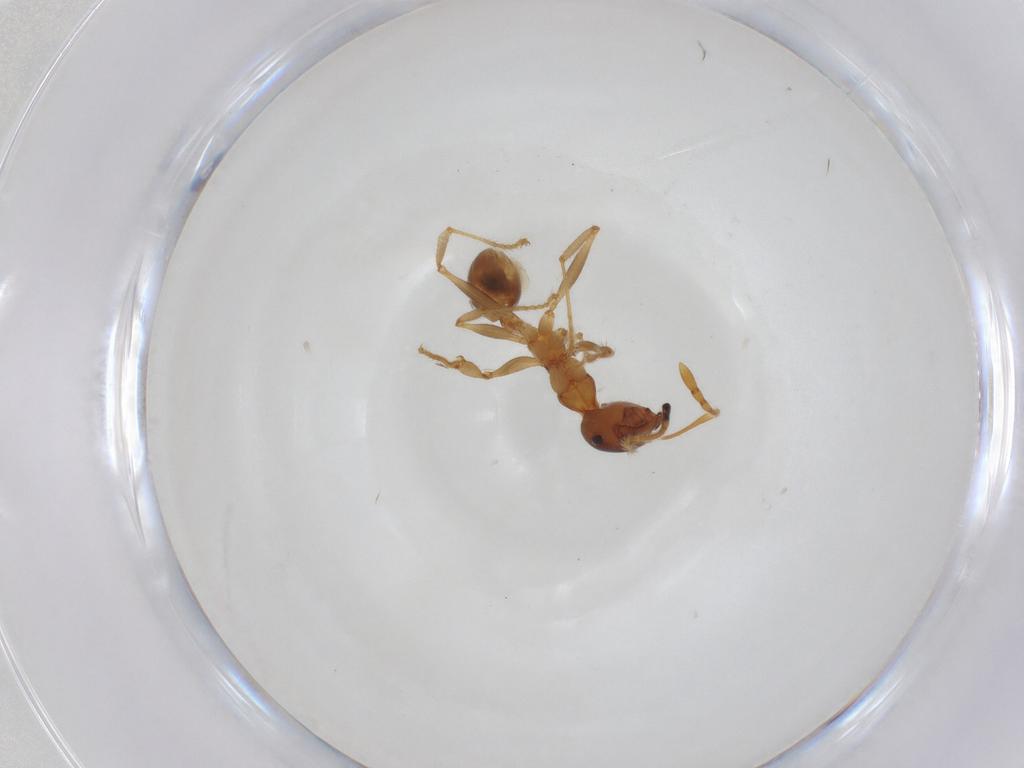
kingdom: Animalia
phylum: Arthropoda
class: Insecta
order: Hymenoptera
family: Formicidae
